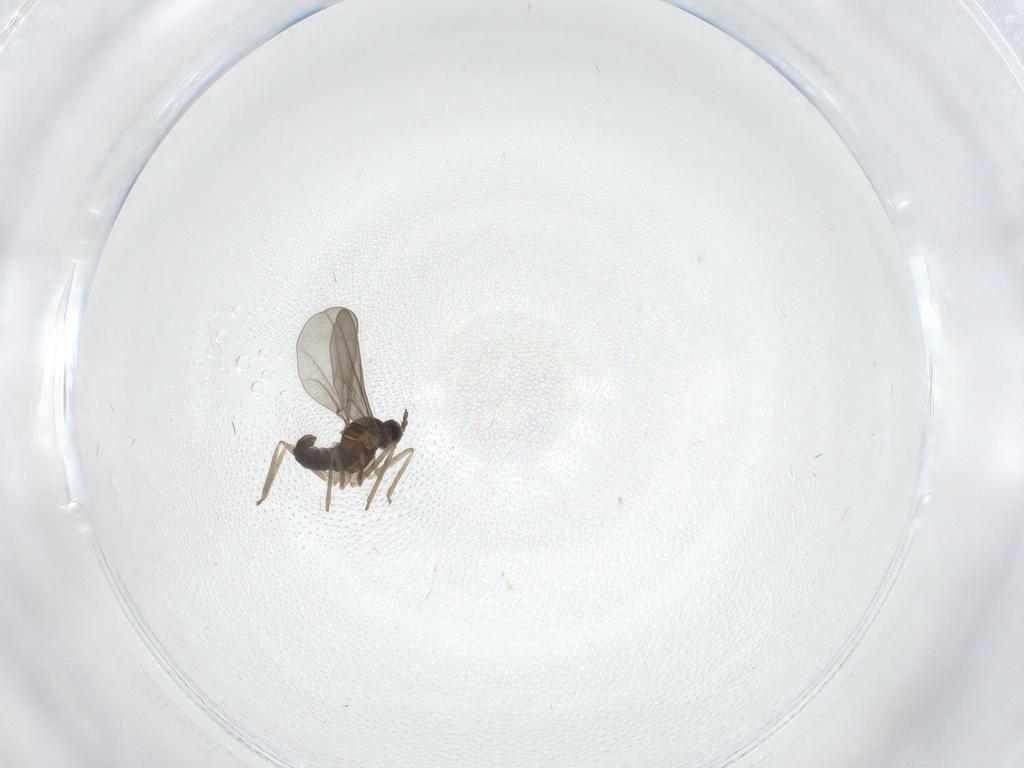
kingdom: Animalia
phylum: Arthropoda
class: Insecta
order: Diptera
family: Cecidomyiidae
